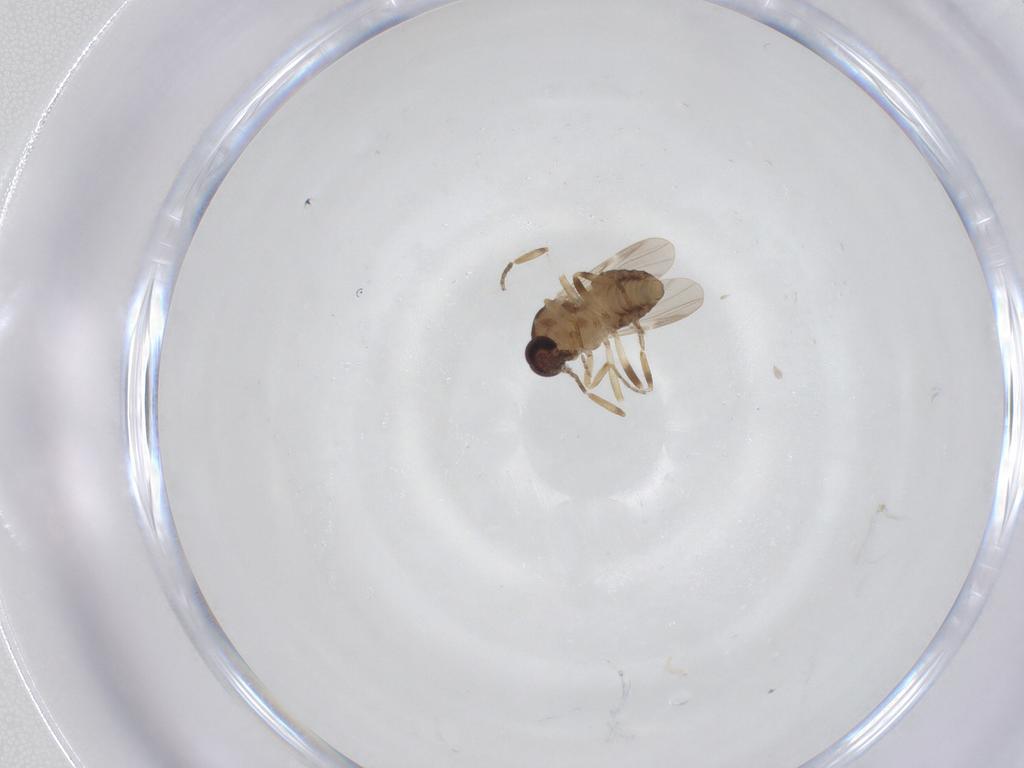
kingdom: Animalia
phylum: Arthropoda
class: Insecta
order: Diptera
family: Ceratopogonidae
